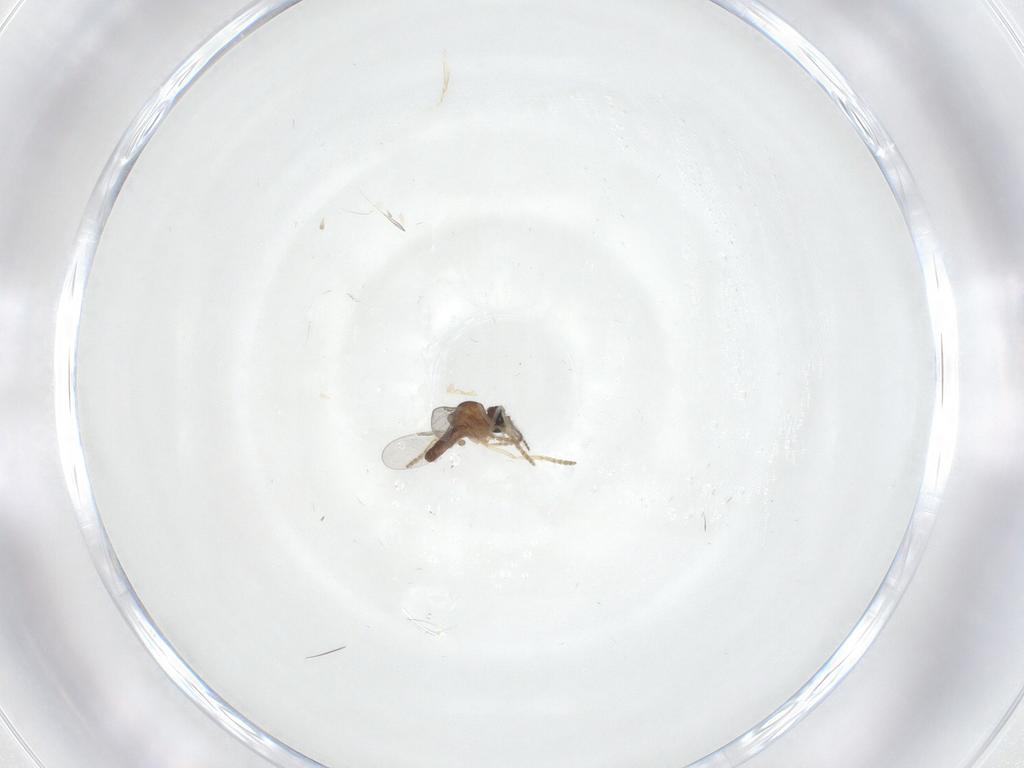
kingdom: Animalia
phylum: Arthropoda
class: Insecta
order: Diptera
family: Ceratopogonidae
